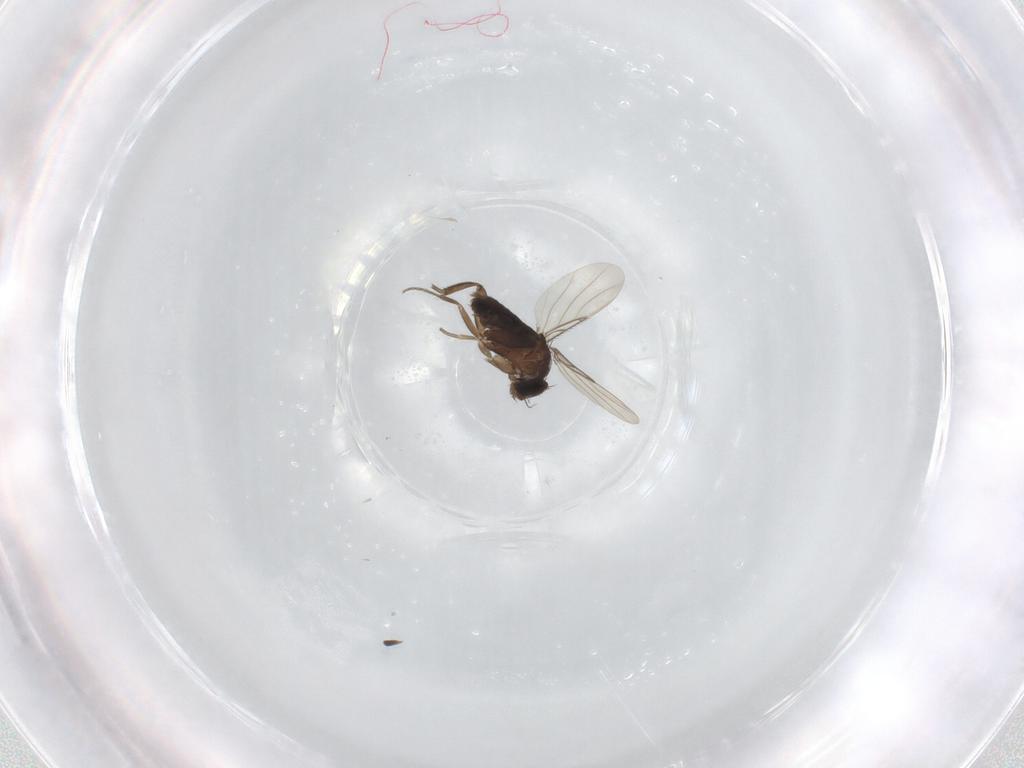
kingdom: Animalia
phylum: Arthropoda
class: Insecta
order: Diptera
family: Phoridae
